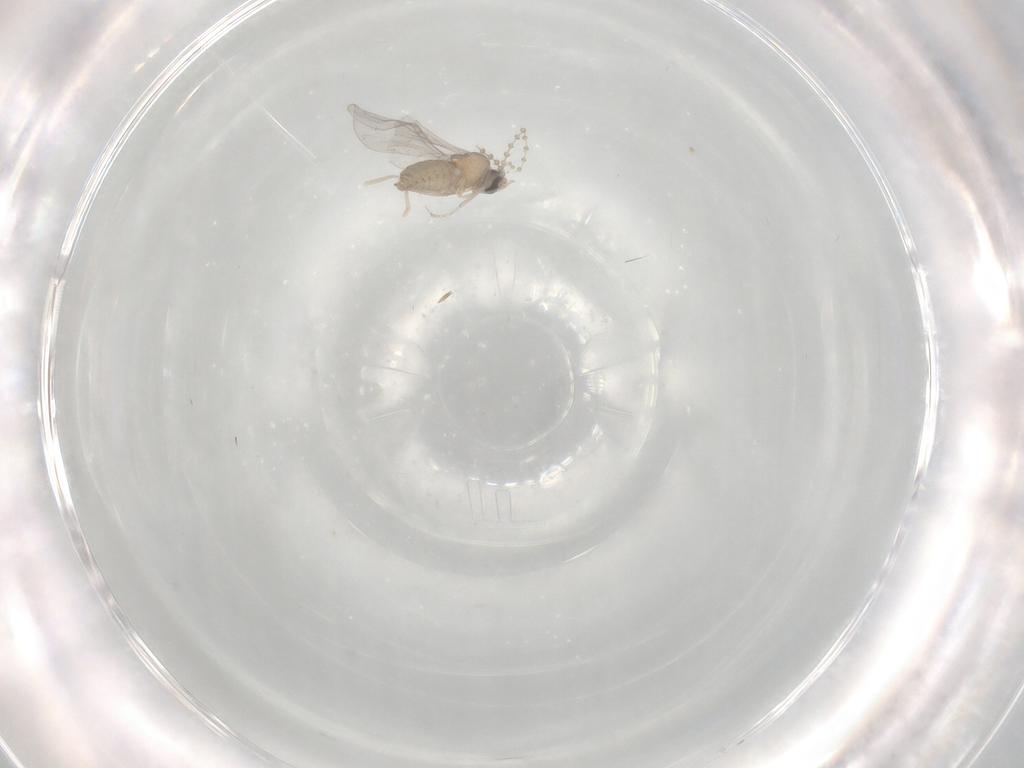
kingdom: Animalia
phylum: Arthropoda
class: Insecta
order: Diptera
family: Cecidomyiidae
